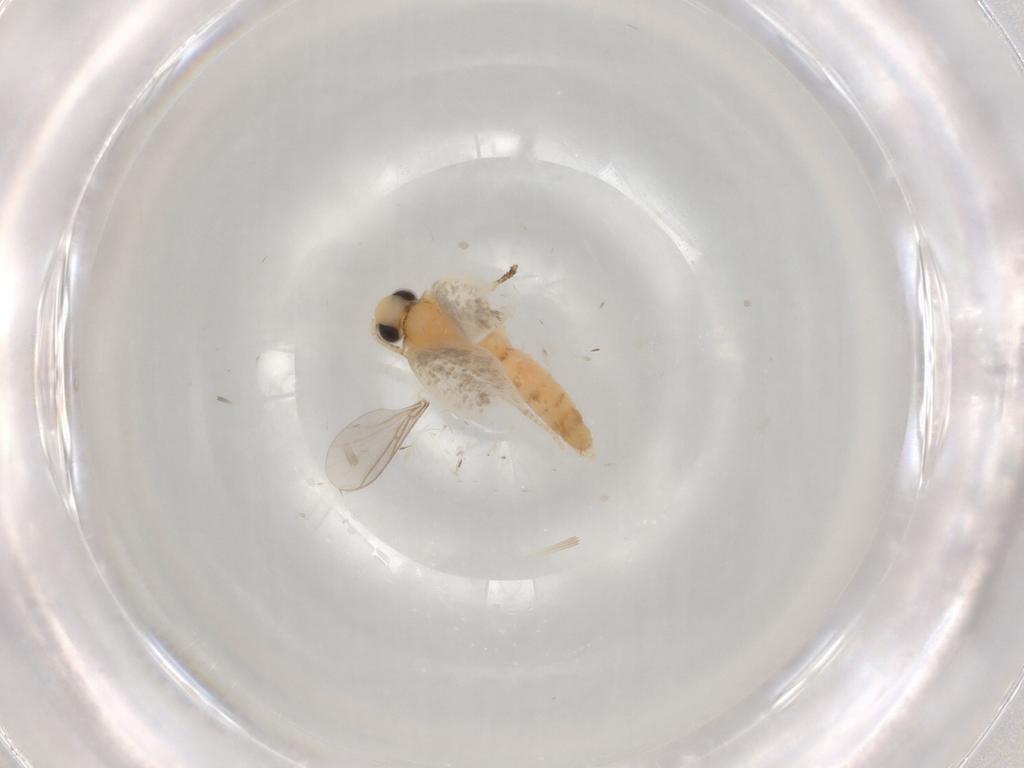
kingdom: Animalia
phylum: Arthropoda
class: Insecta
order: Lepidoptera
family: Tineidae
